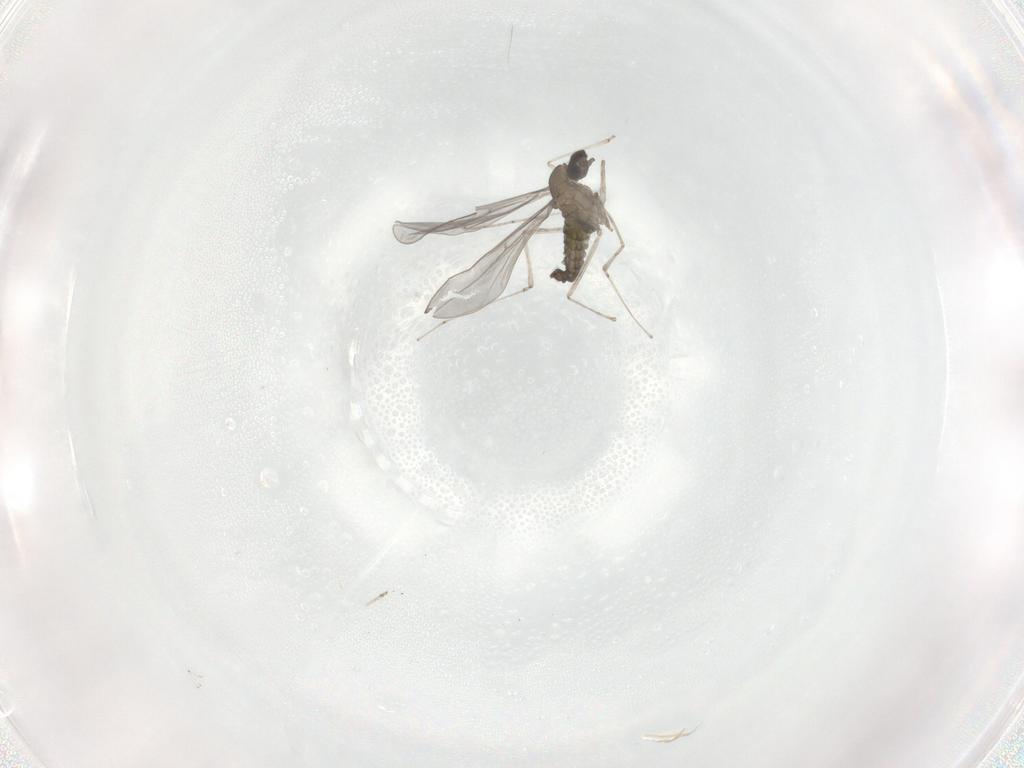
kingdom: Animalia
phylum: Arthropoda
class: Insecta
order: Diptera
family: Cecidomyiidae
